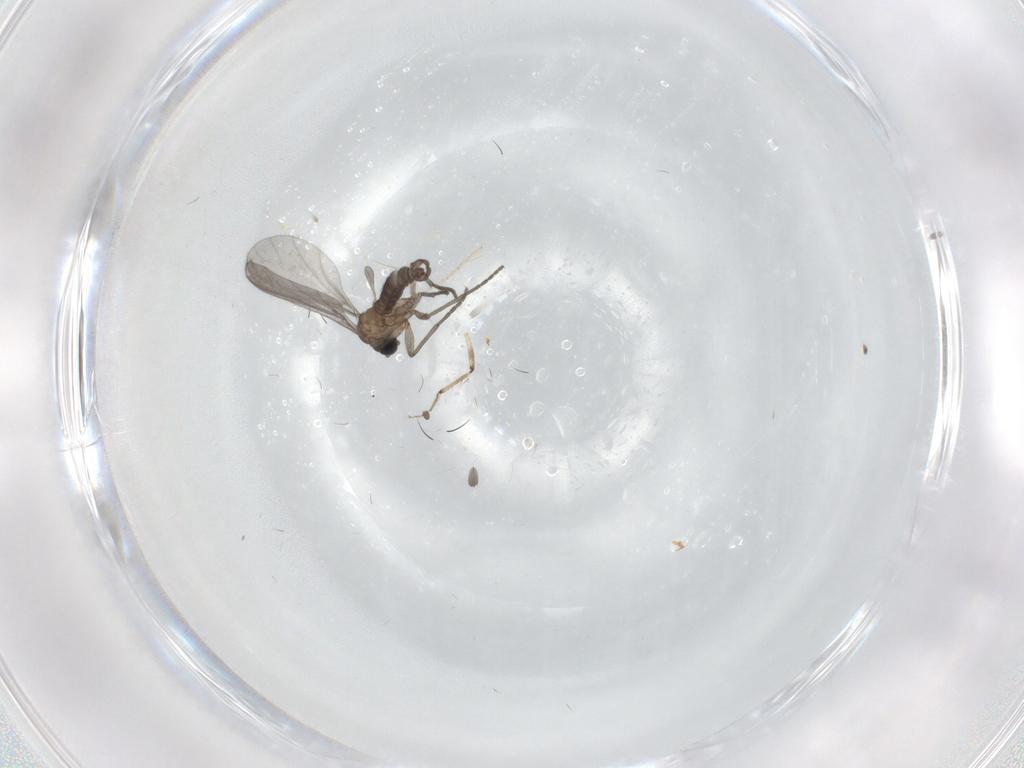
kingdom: Animalia
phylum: Arthropoda
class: Insecta
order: Diptera
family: Sciaridae
